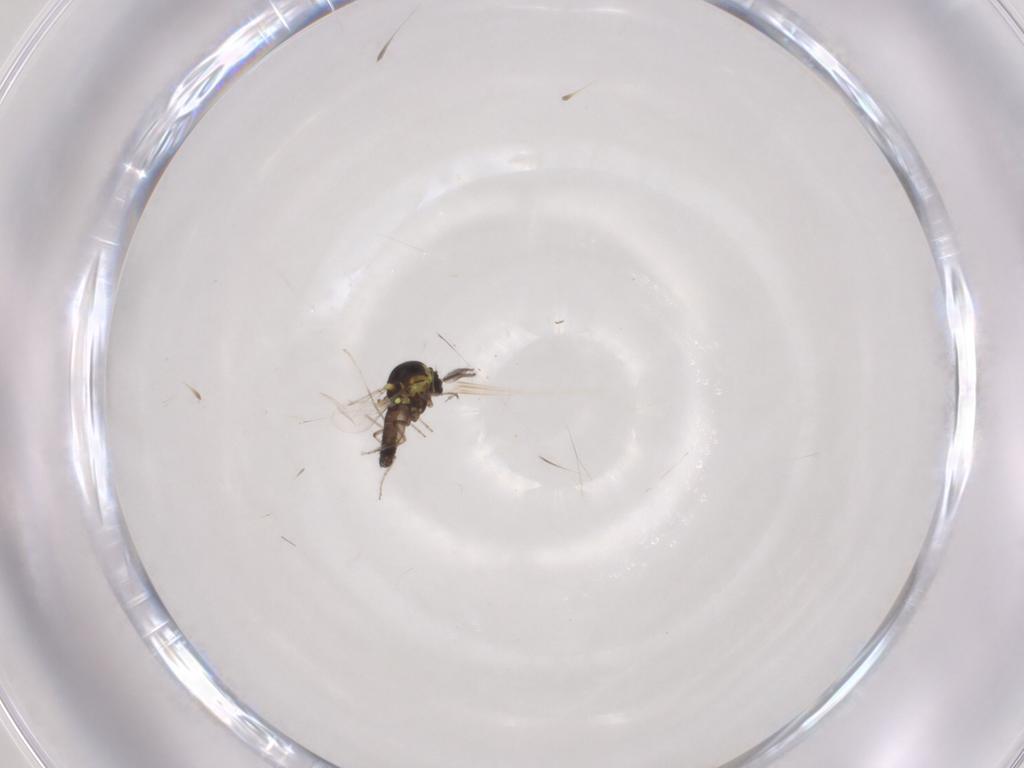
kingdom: Animalia
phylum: Arthropoda
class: Insecta
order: Diptera
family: Ceratopogonidae
